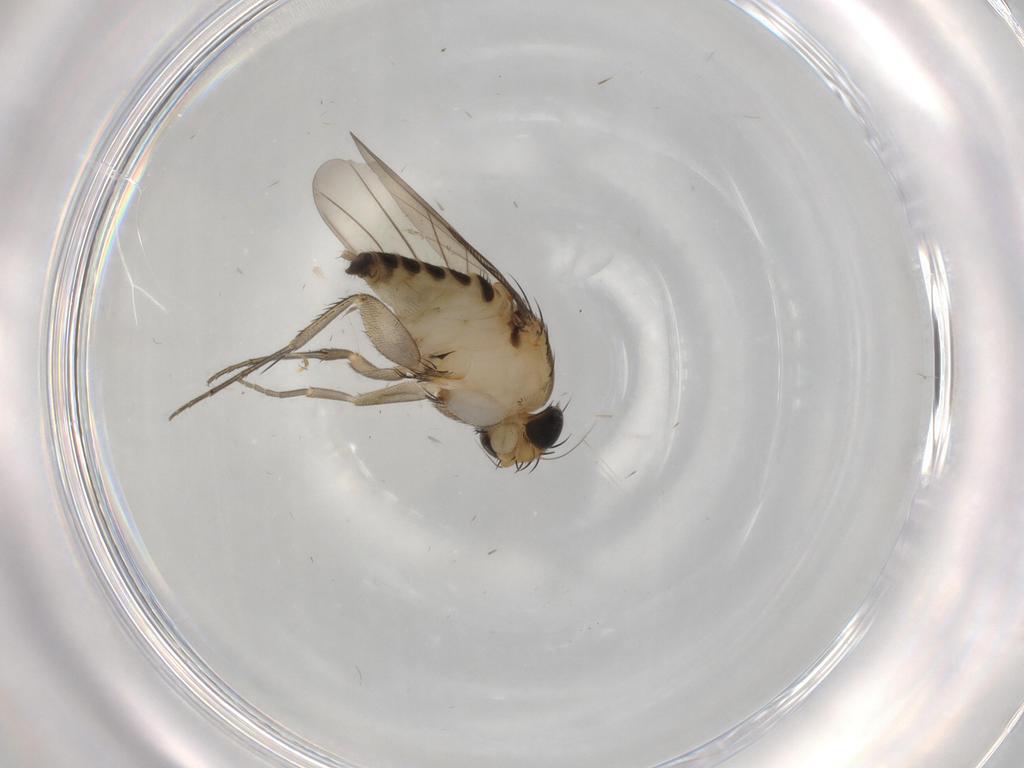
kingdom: Animalia
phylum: Arthropoda
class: Insecta
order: Diptera
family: Phoridae
